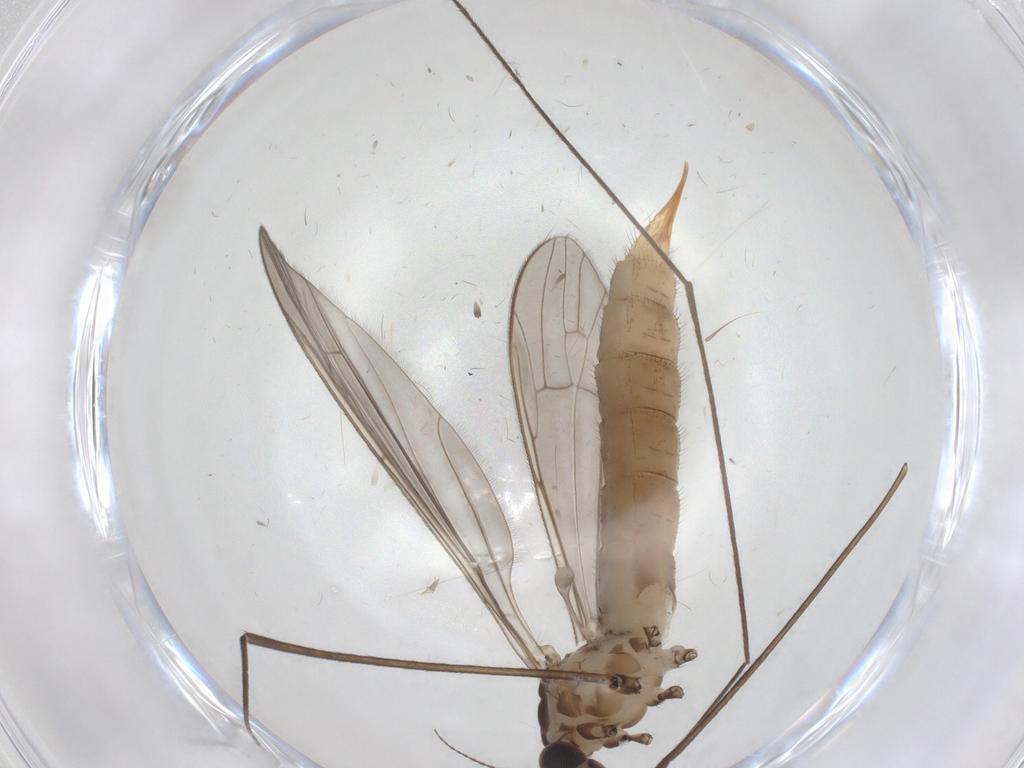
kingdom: Animalia
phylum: Arthropoda
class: Insecta
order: Diptera
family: Limoniidae
